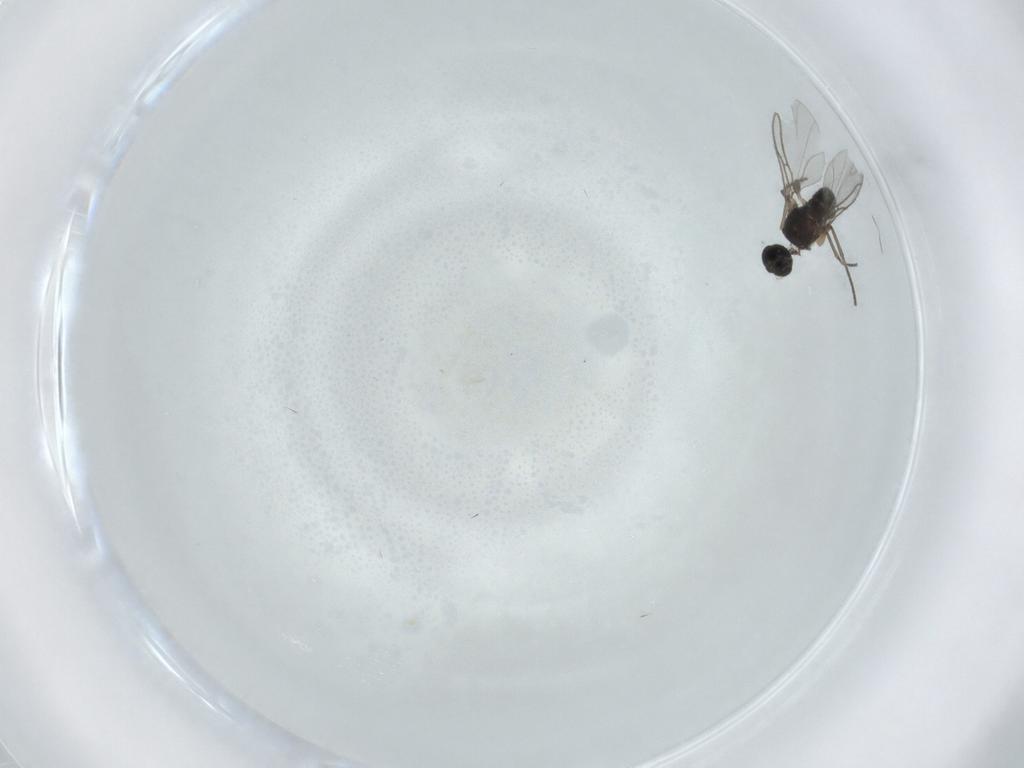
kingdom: Animalia
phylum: Arthropoda
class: Insecta
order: Diptera
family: Sciaridae
